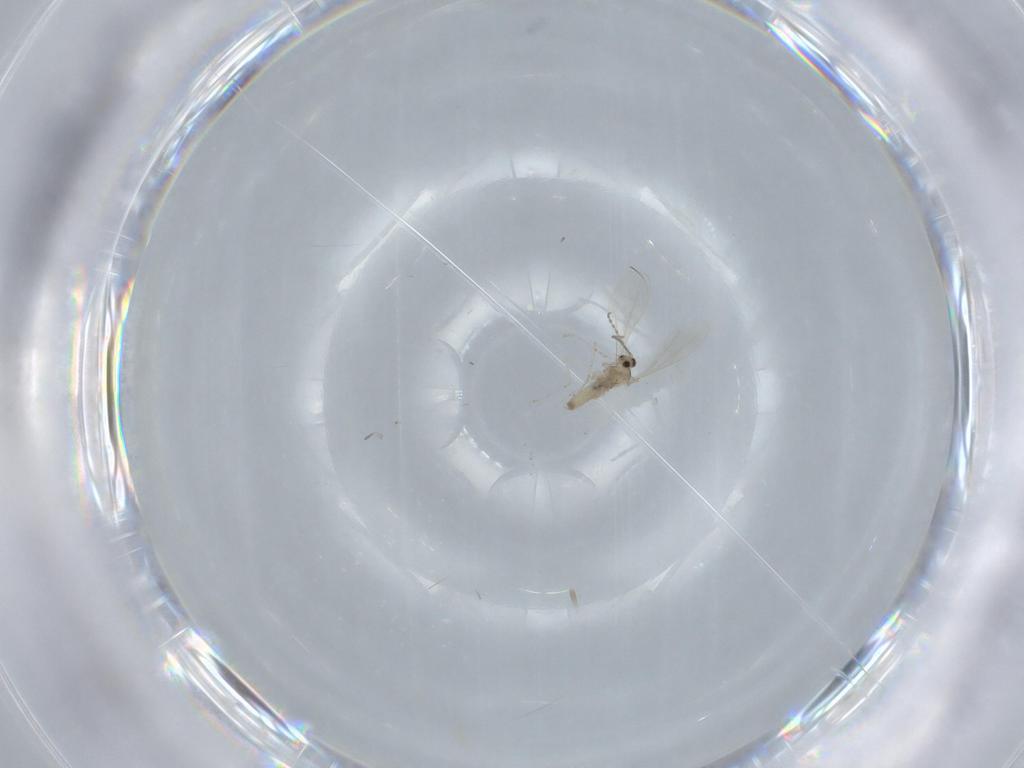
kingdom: Animalia
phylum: Arthropoda
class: Insecta
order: Diptera
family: Cecidomyiidae
